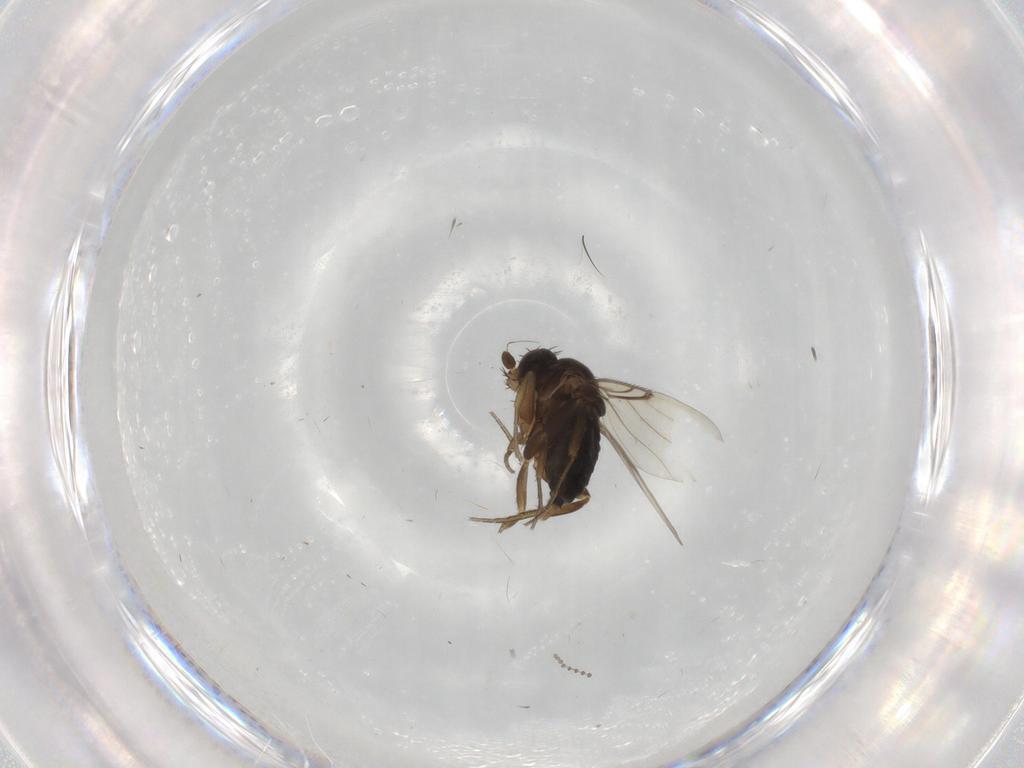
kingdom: Animalia
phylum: Arthropoda
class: Insecta
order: Diptera
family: Psychodidae
